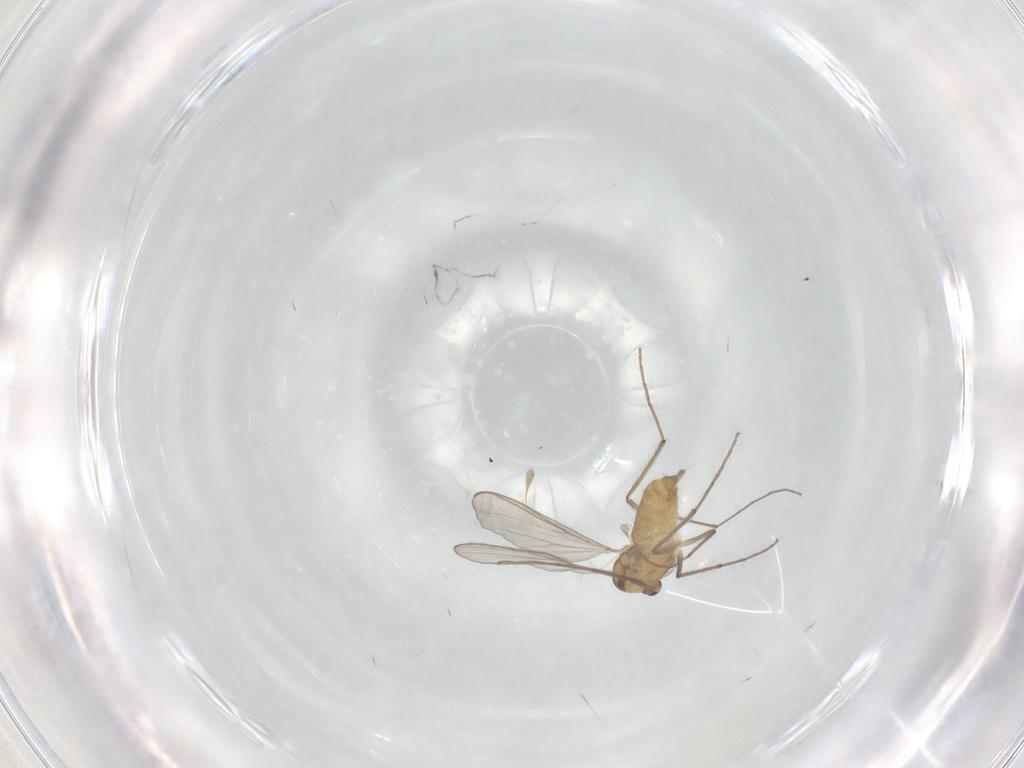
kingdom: Animalia
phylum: Arthropoda
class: Insecta
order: Diptera
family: Chironomidae
